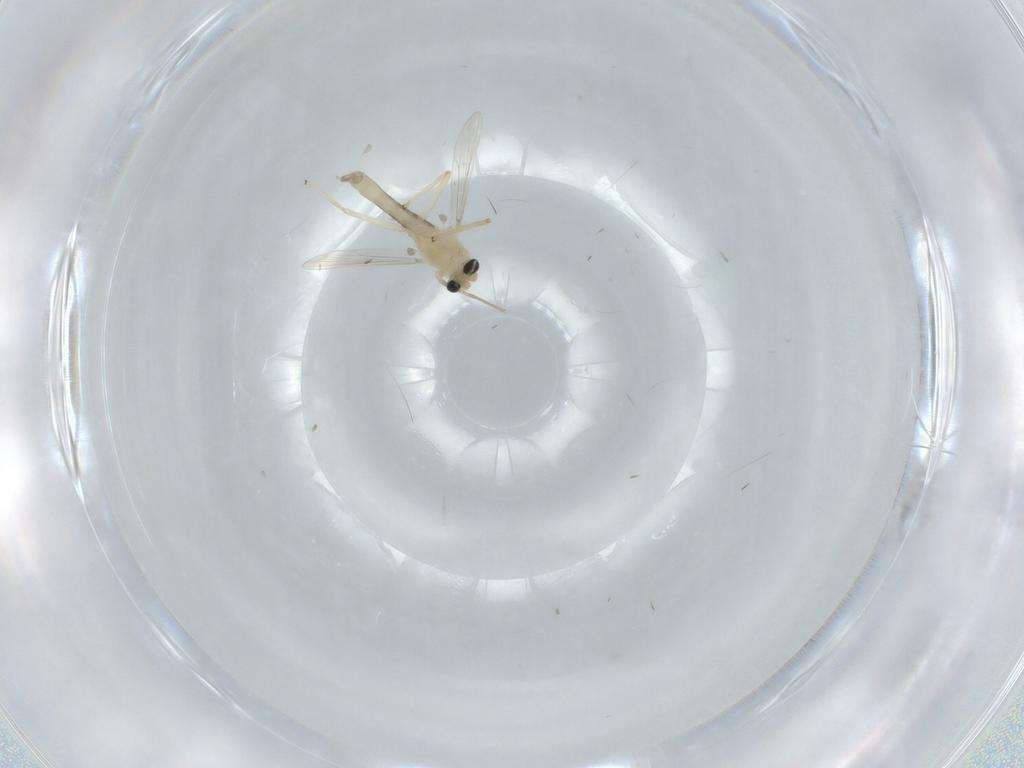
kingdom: Animalia
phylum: Arthropoda
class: Insecta
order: Diptera
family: Chironomidae
